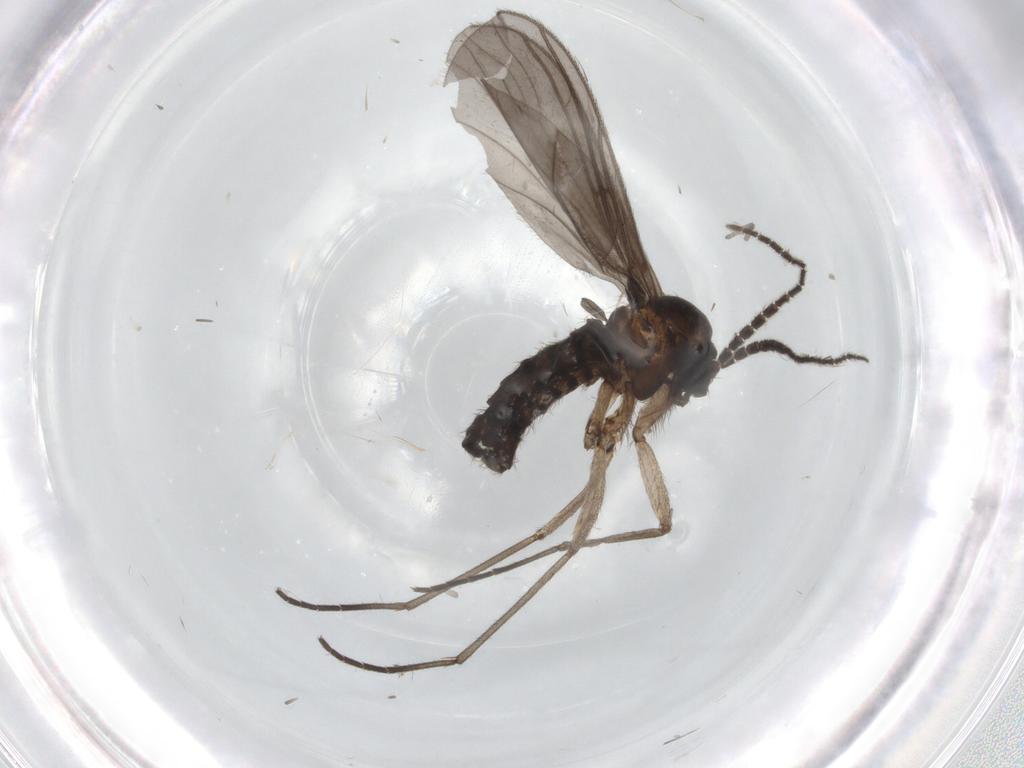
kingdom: Animalia
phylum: Arthropoda
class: Insecta
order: Diptera
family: Sciaridae
